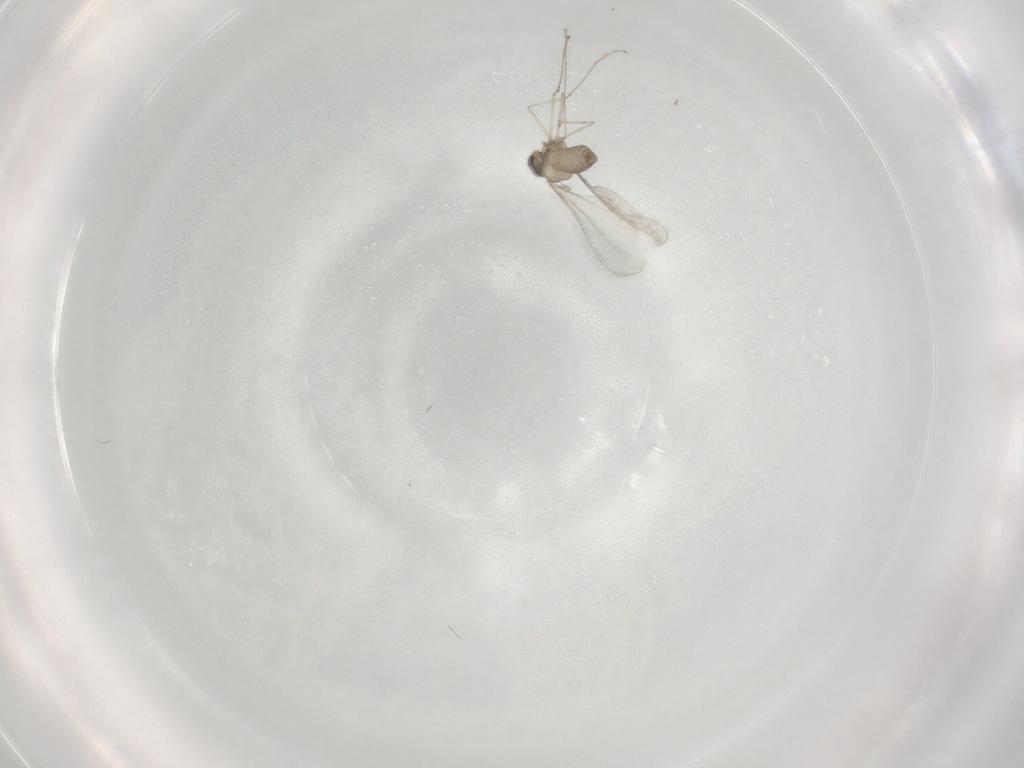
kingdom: Animalia
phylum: Arthropoda
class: Insecta
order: Diptera
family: Cecidomyiidae
